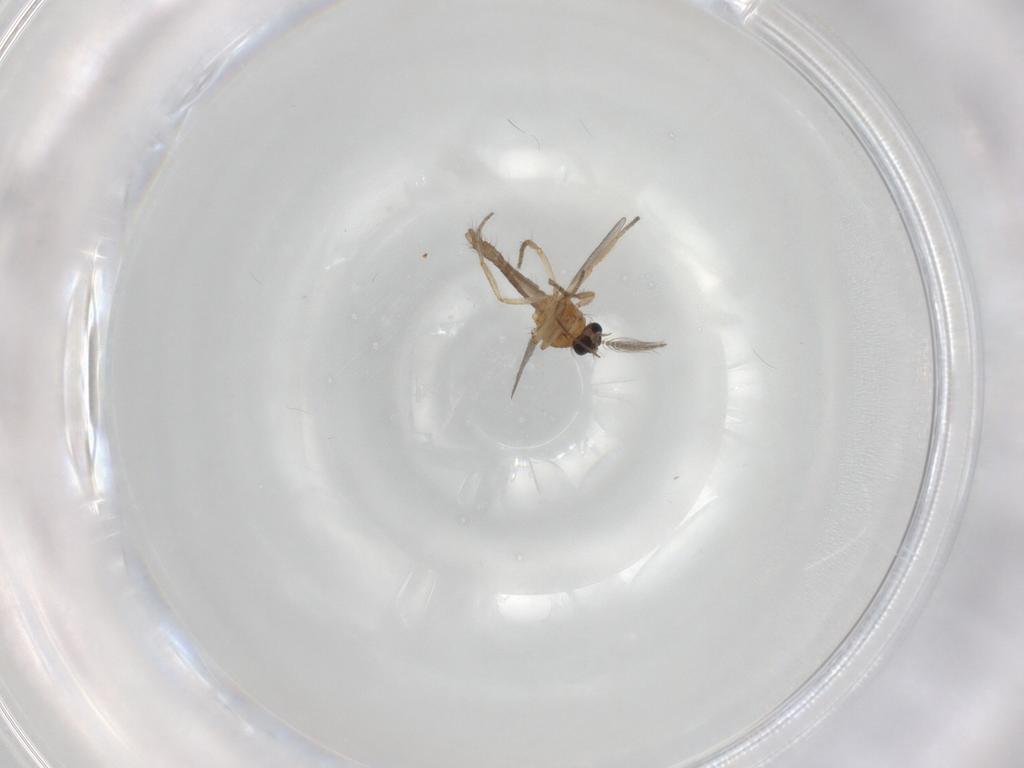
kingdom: Animalia
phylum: Arthropoda
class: Insecta
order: Diptera
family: Ceratopogonidae
